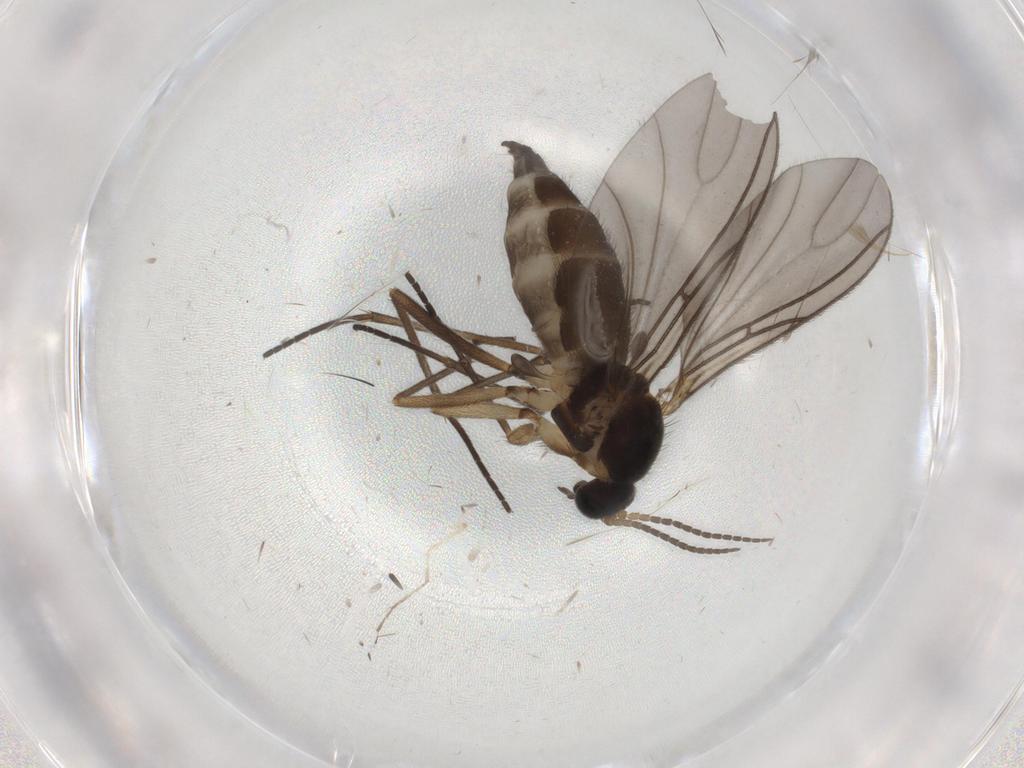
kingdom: Animalia
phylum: Arthropoda
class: Insecta
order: Diptera
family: Sciaridae
